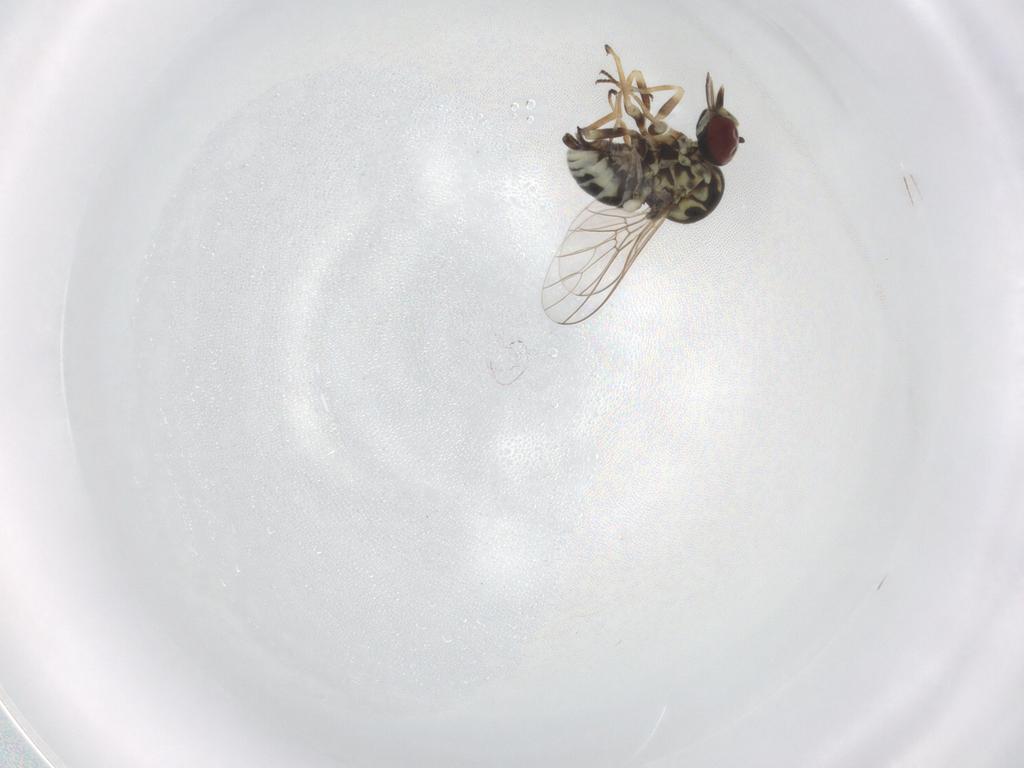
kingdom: Animalia
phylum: Arthropoda
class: Insecta
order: Diptera
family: Bombyliidae
